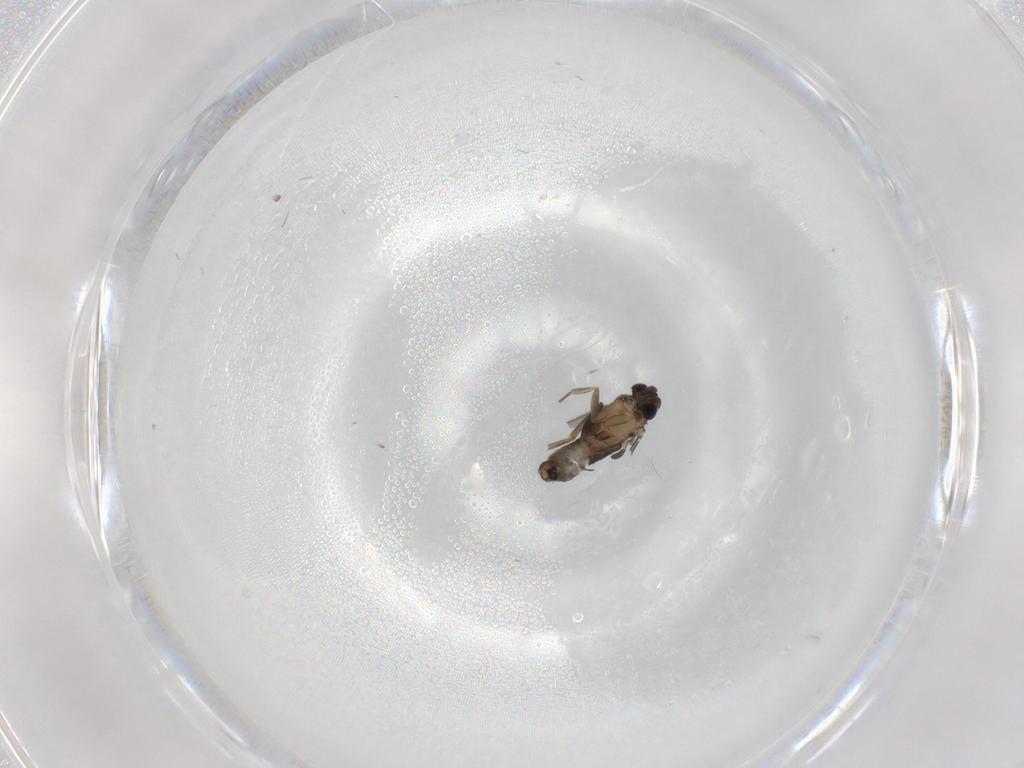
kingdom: Animalia
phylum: Arthropoda
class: Insecta
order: Diptera
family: Phoridae
